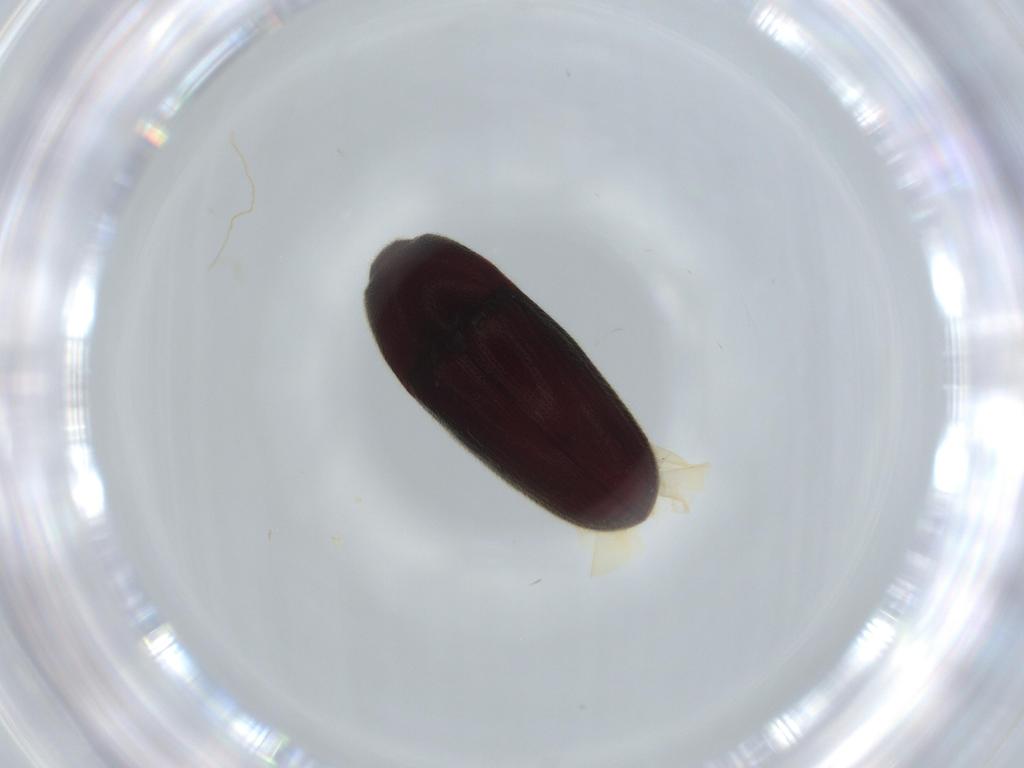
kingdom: Animalia
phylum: Arthropoda
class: Insecta
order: Coleoptera
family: Throscidae
